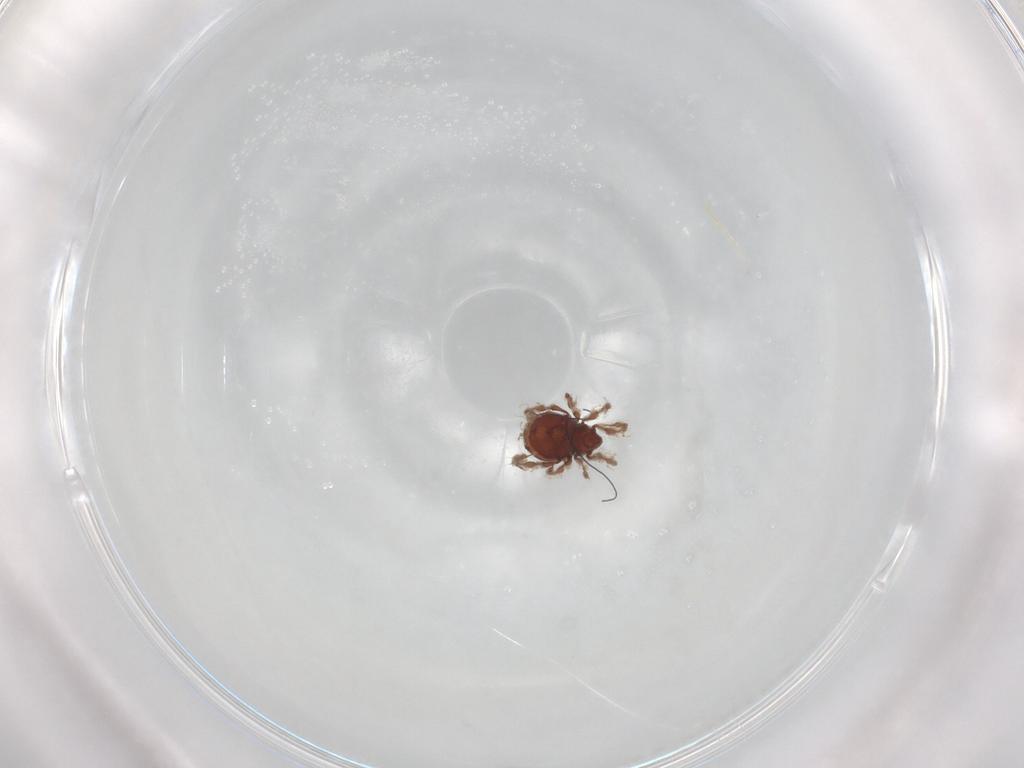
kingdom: Animalia
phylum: Arthropoda
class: Arachnida
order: Sarcoptiformes
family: Damaeidae
